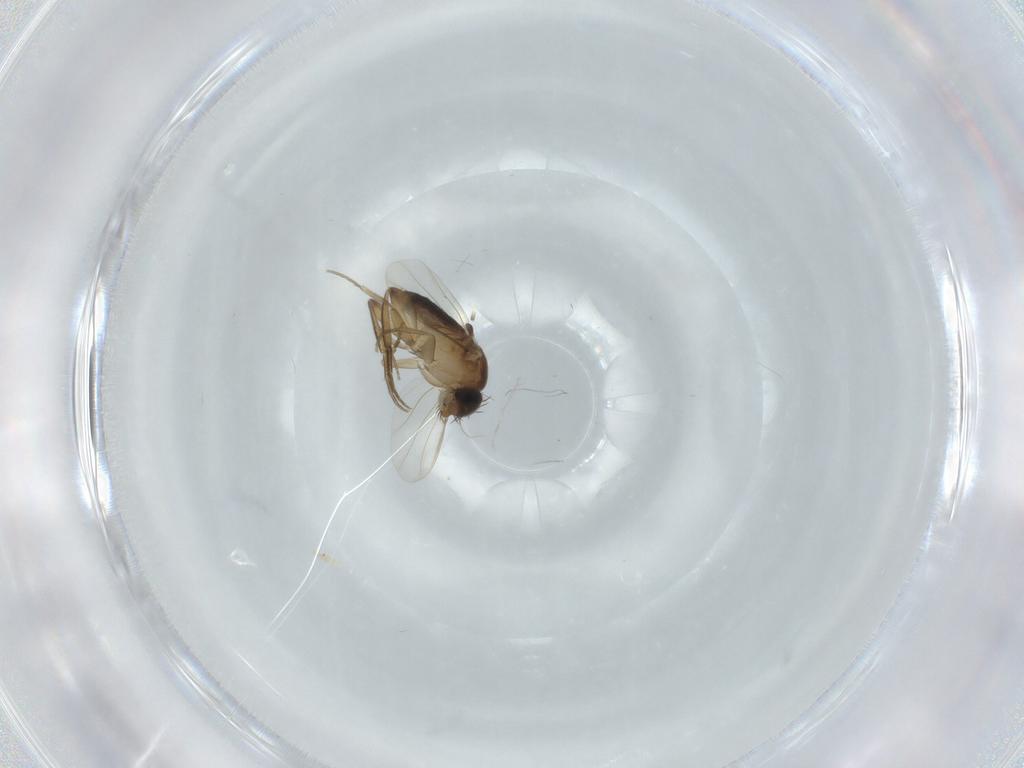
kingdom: Animalia
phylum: Arthropoda
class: Insecta
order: Diptera
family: Phoridae
